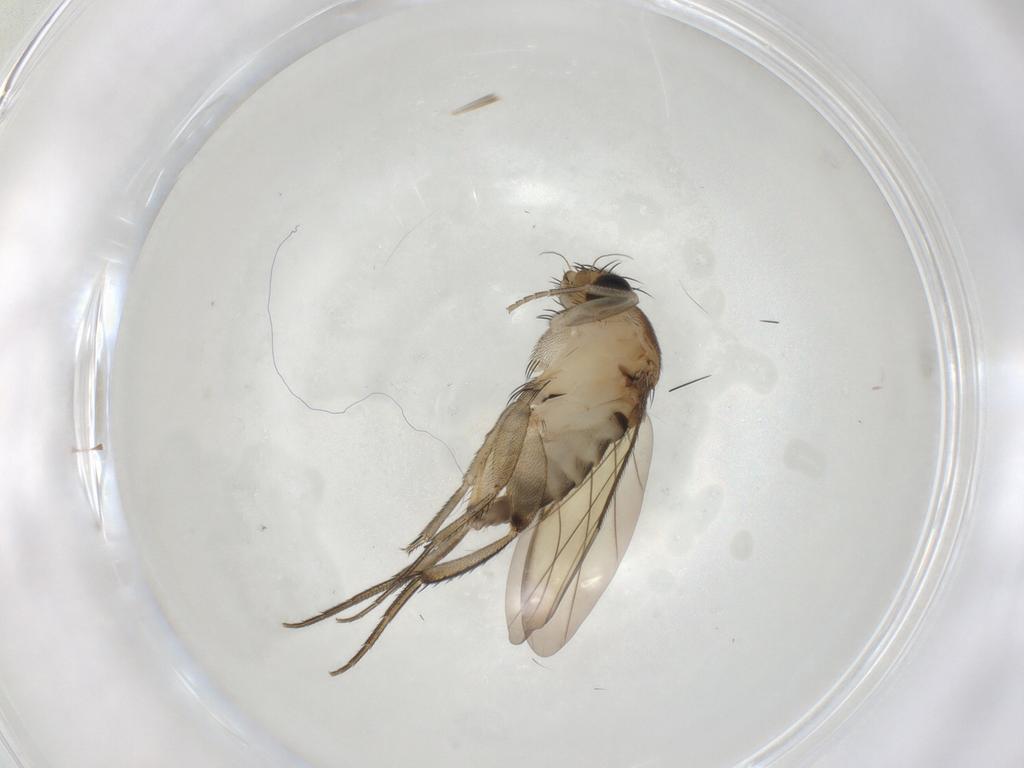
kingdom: Animalia
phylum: Arthropoda
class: Insecta
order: Diptera
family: Phoridae
